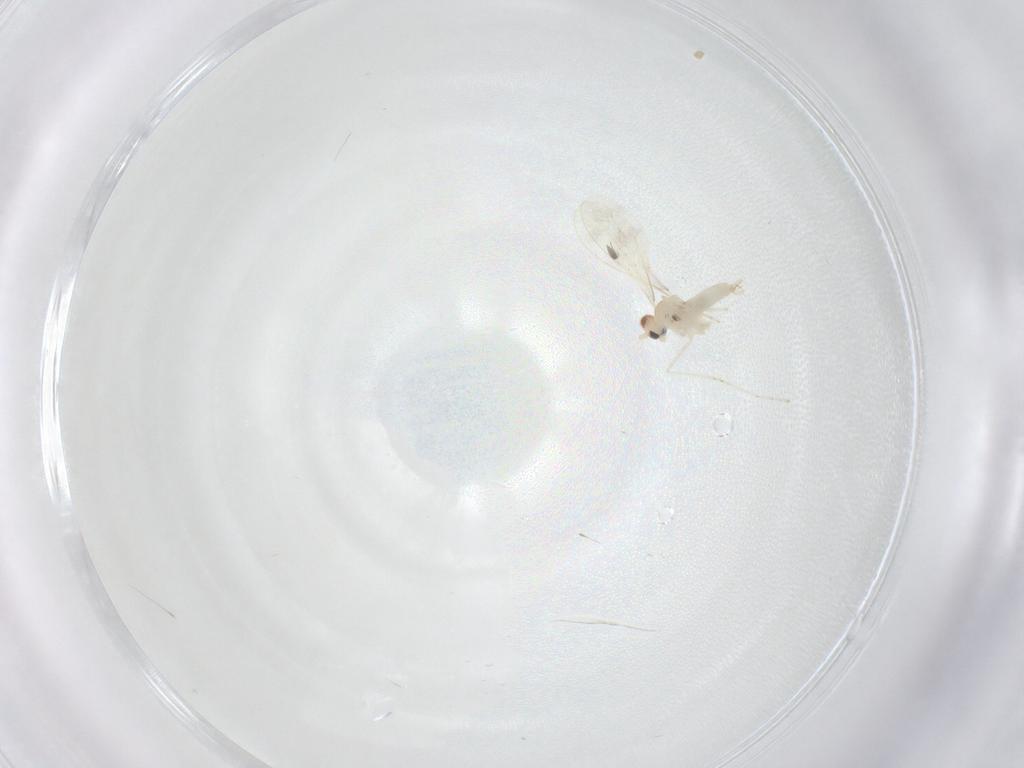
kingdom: Animalia
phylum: Arthropoda
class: Insecta
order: Diptera
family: Cecidomyiidae
